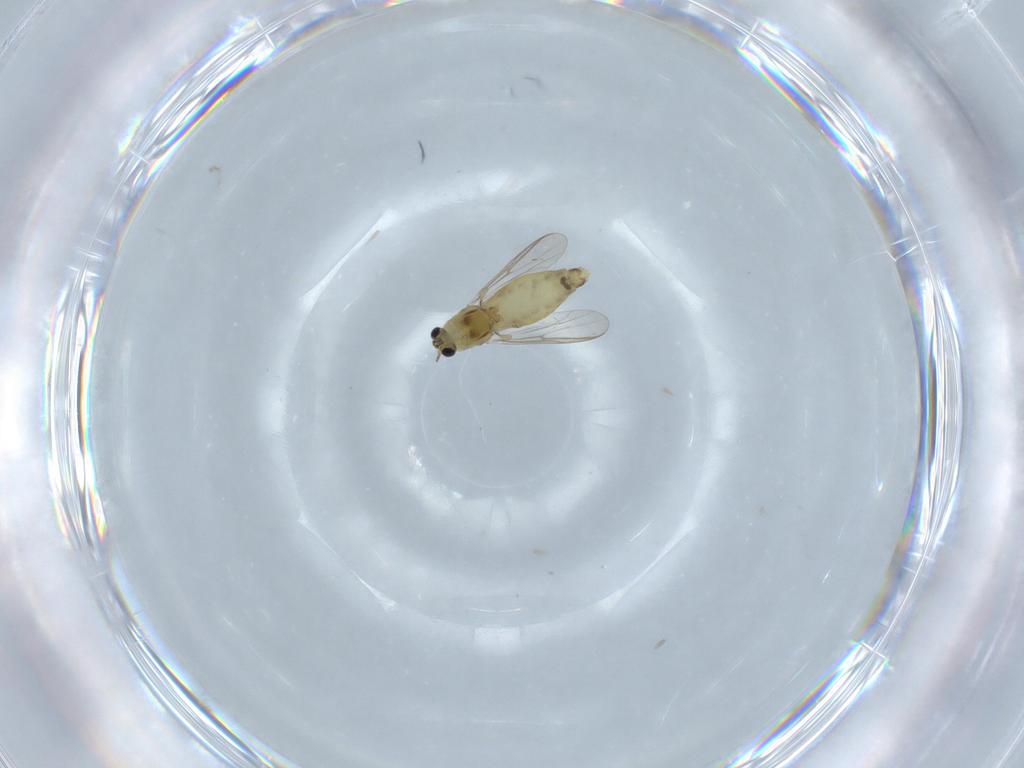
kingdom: Animalia
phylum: Arthropoda
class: Insecta
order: Diptera
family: Chironomidae
